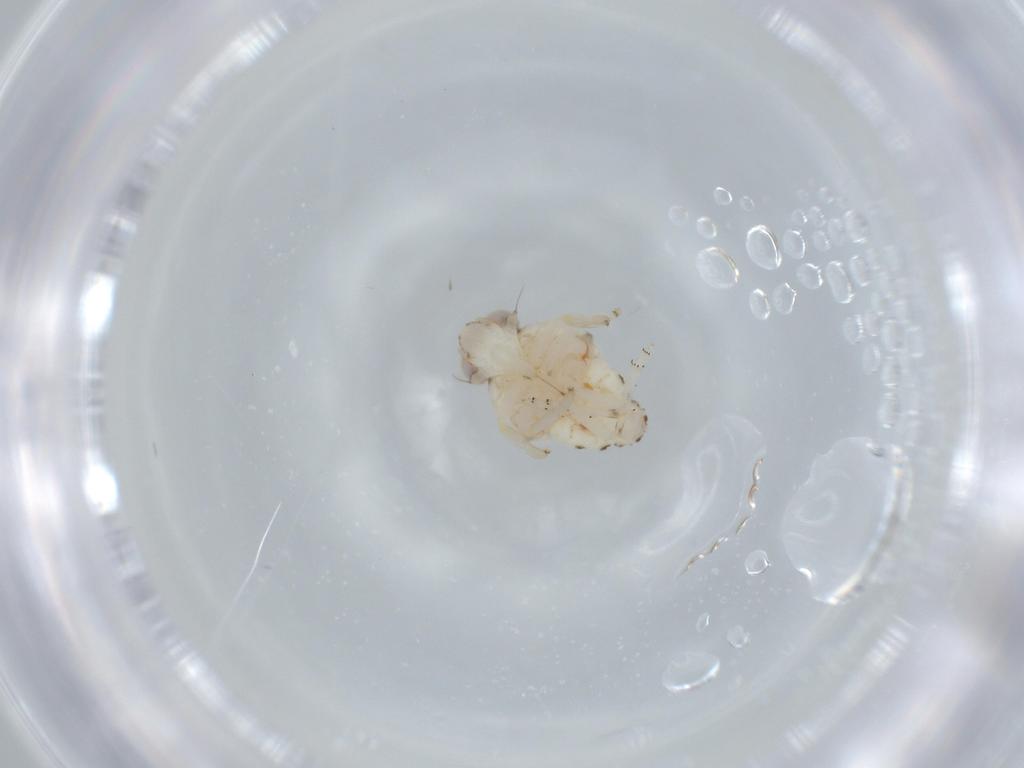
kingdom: Animalia
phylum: Arthropoda
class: Insecta
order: Hemiptera
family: Nogodinidae
